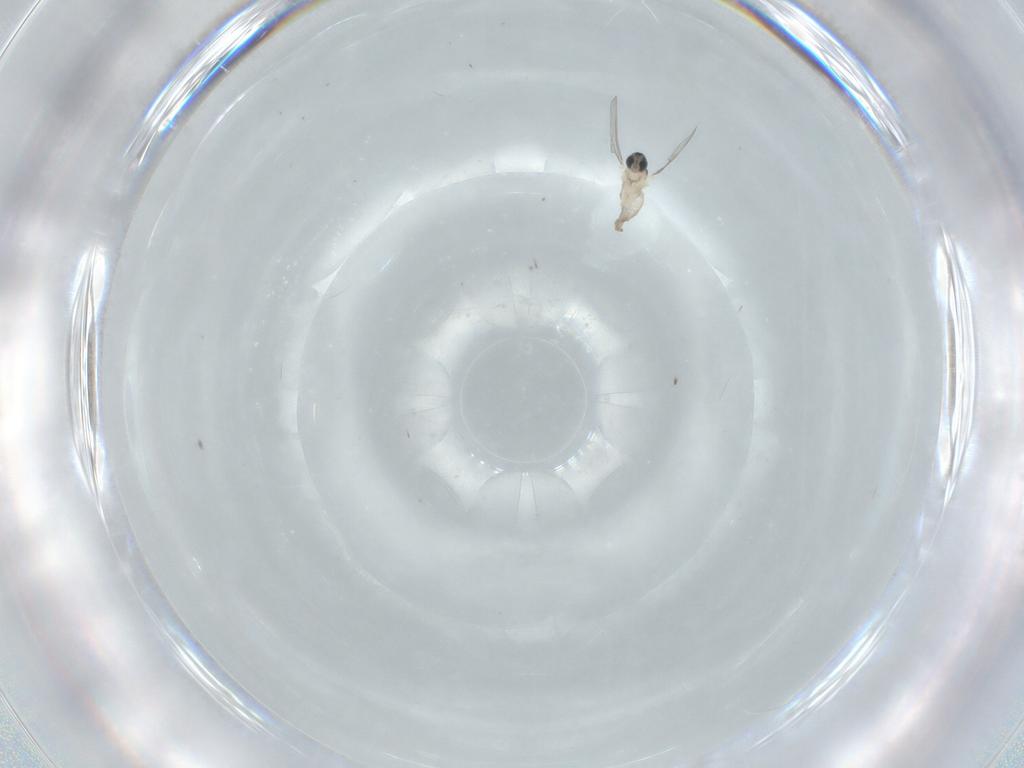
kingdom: Animalia
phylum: Arthropoda
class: Insecta
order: Diptera
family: Cecidomyiidae
